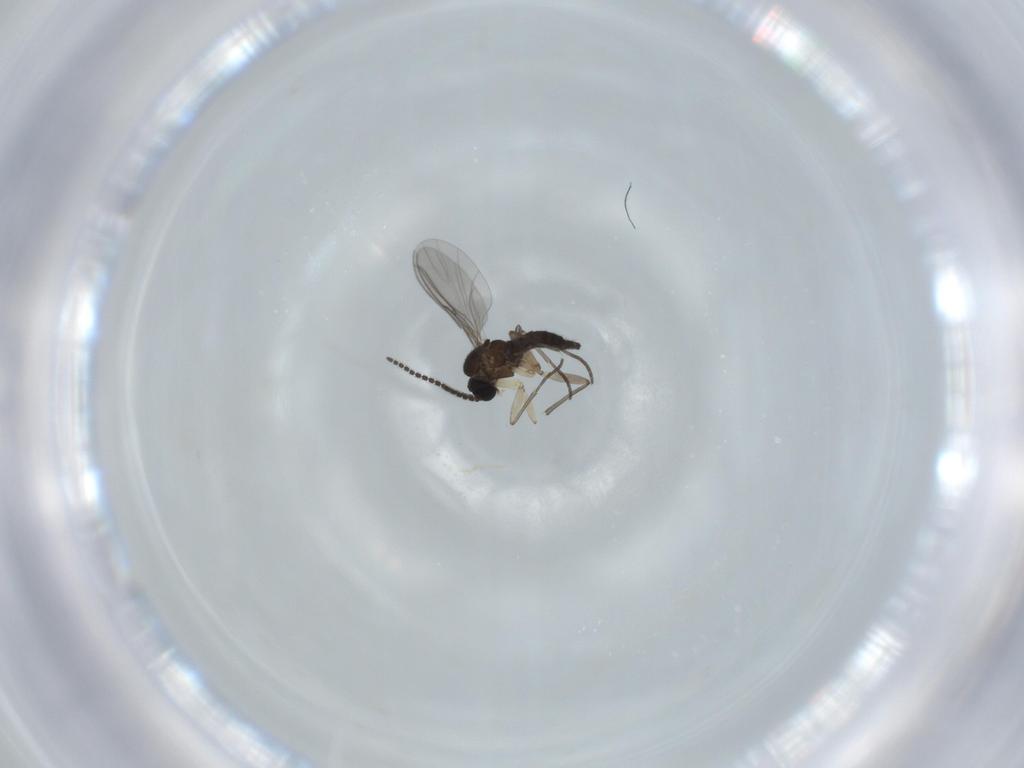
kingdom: Animalia
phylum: Arthropoda
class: Insecta
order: Diptera
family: Sciaridae
